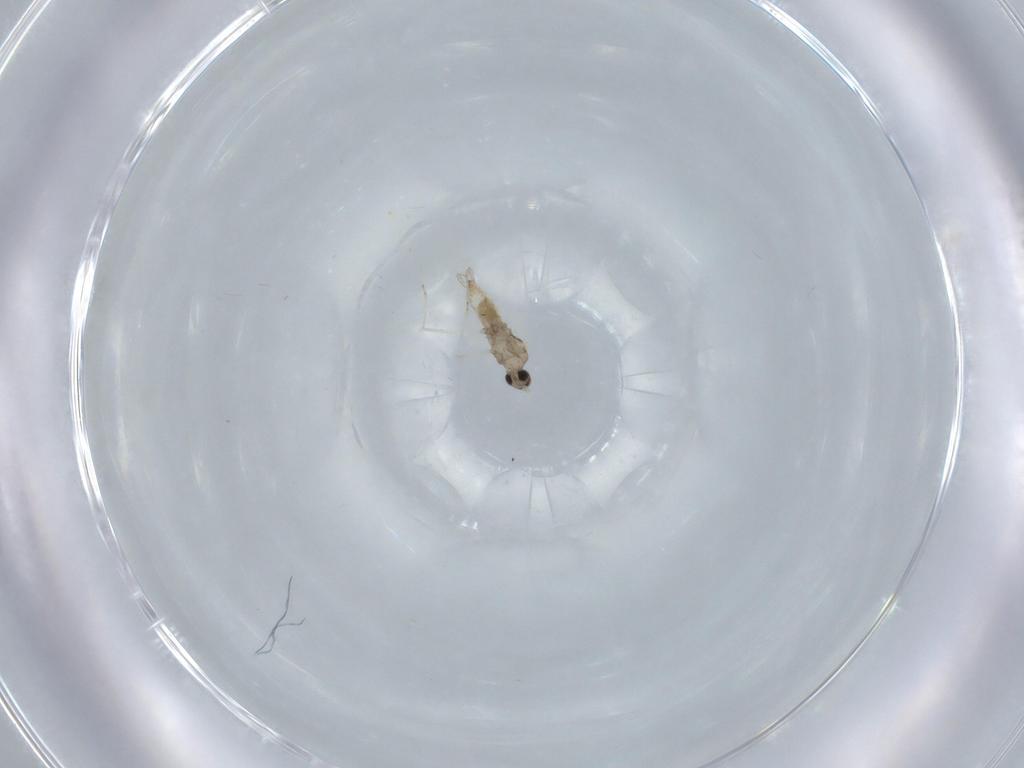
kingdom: Animalia
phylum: Arthropoda
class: Insecta
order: Diptera
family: Cecidomyiidae
